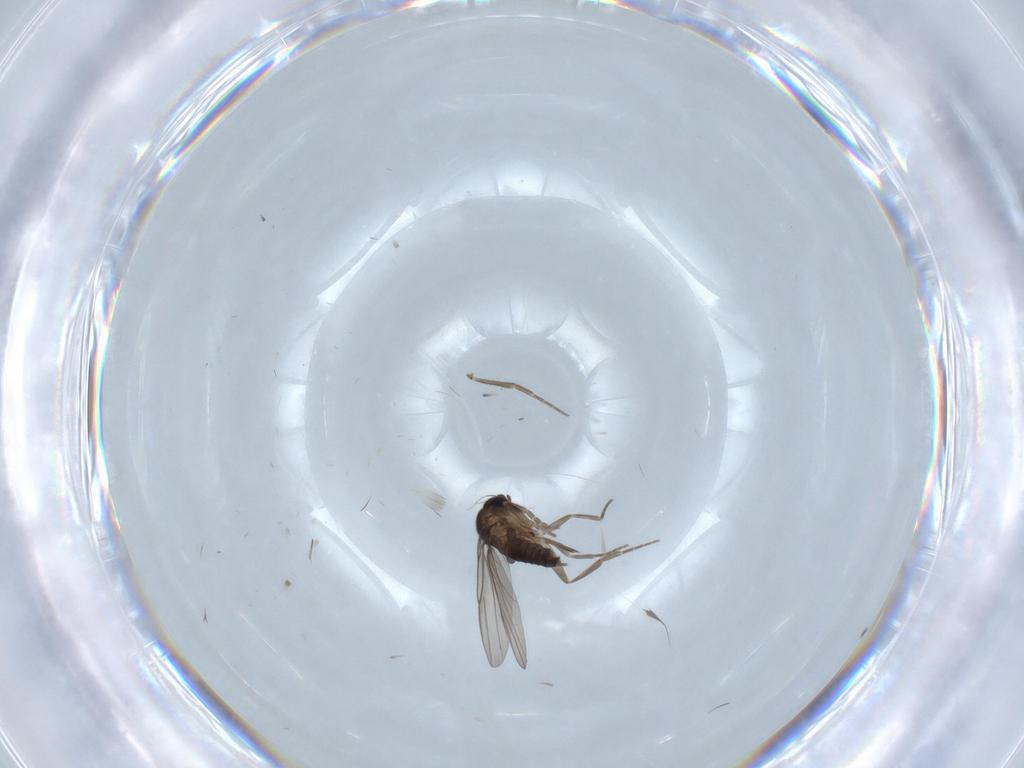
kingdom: Animalia
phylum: Arthropoda
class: Insecta
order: Diptera
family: Phoridae
